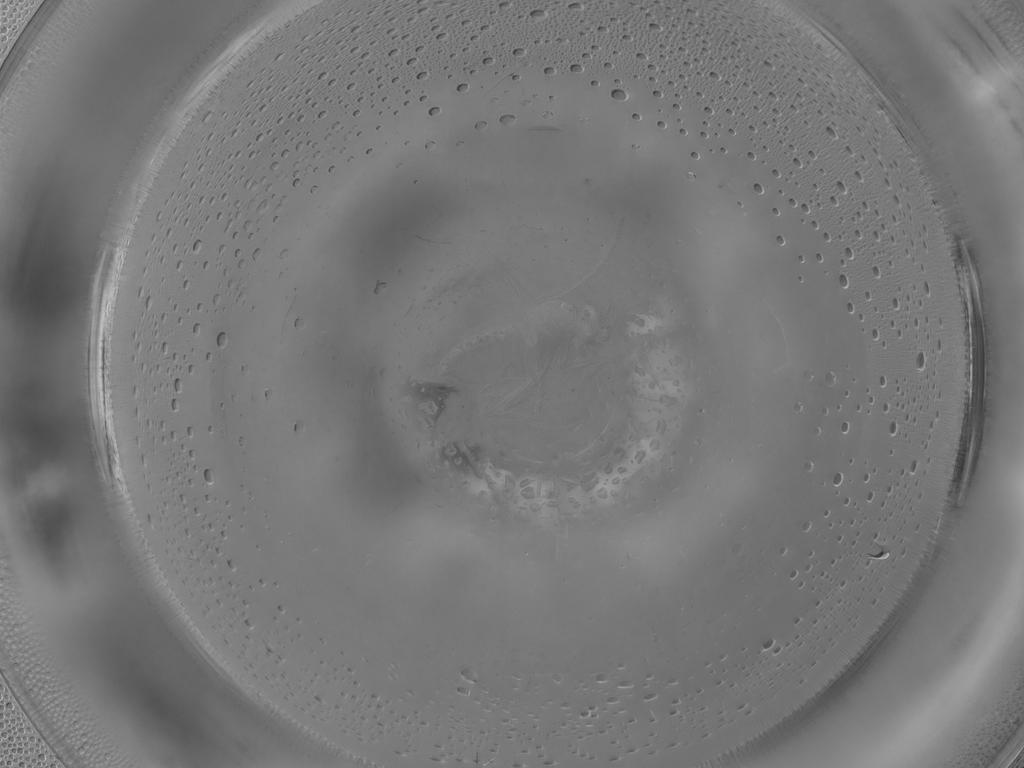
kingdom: Animalia
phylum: Arthropoda
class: Insecta
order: Diptera
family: Phoridae
